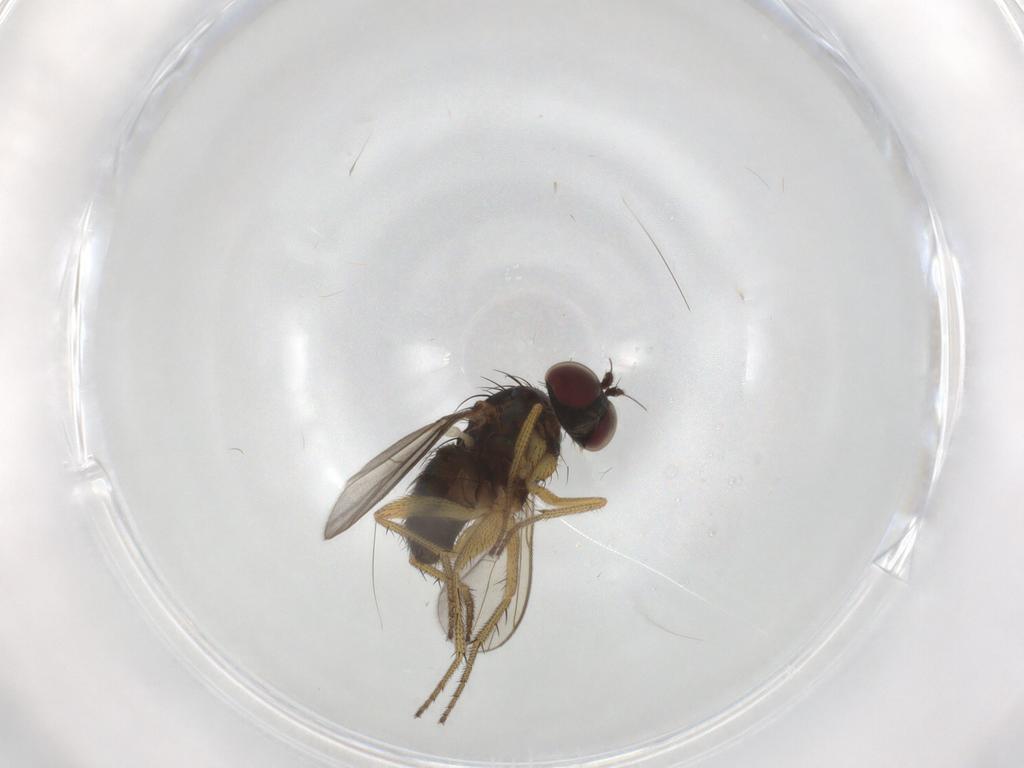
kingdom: Animalia
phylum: Arthropoda
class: Insecta
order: Diptera
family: Dolichopodidae
